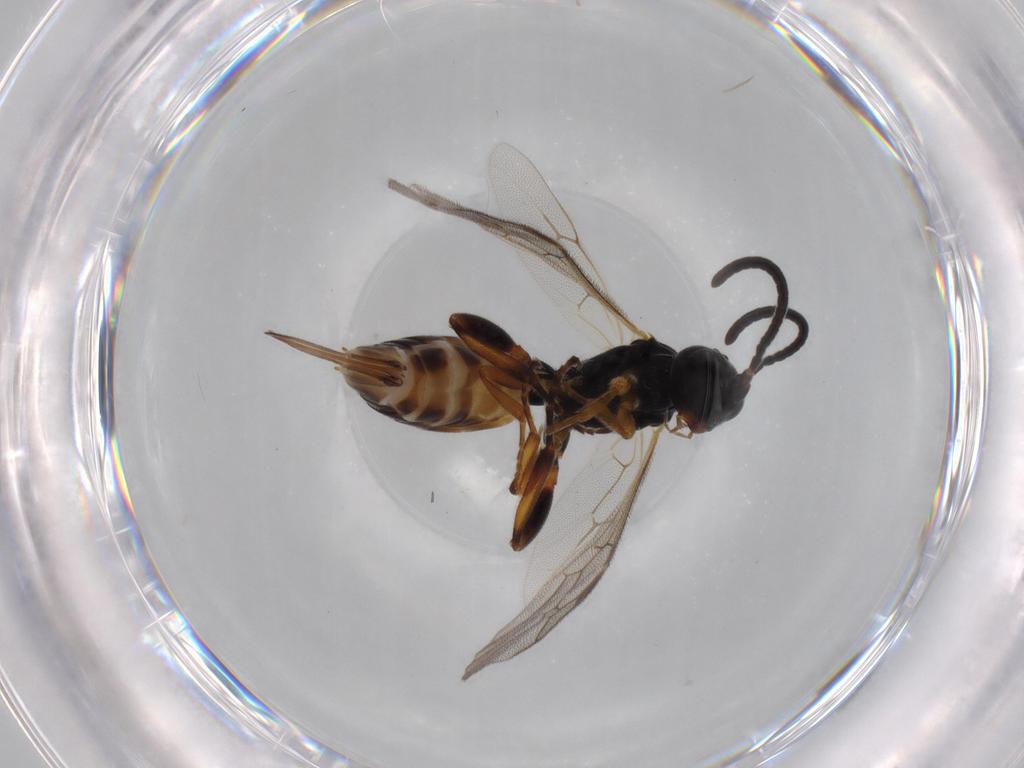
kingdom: Animalia
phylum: Arthropoda
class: Insecta
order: Hymenoptera
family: Ichneumonidae
